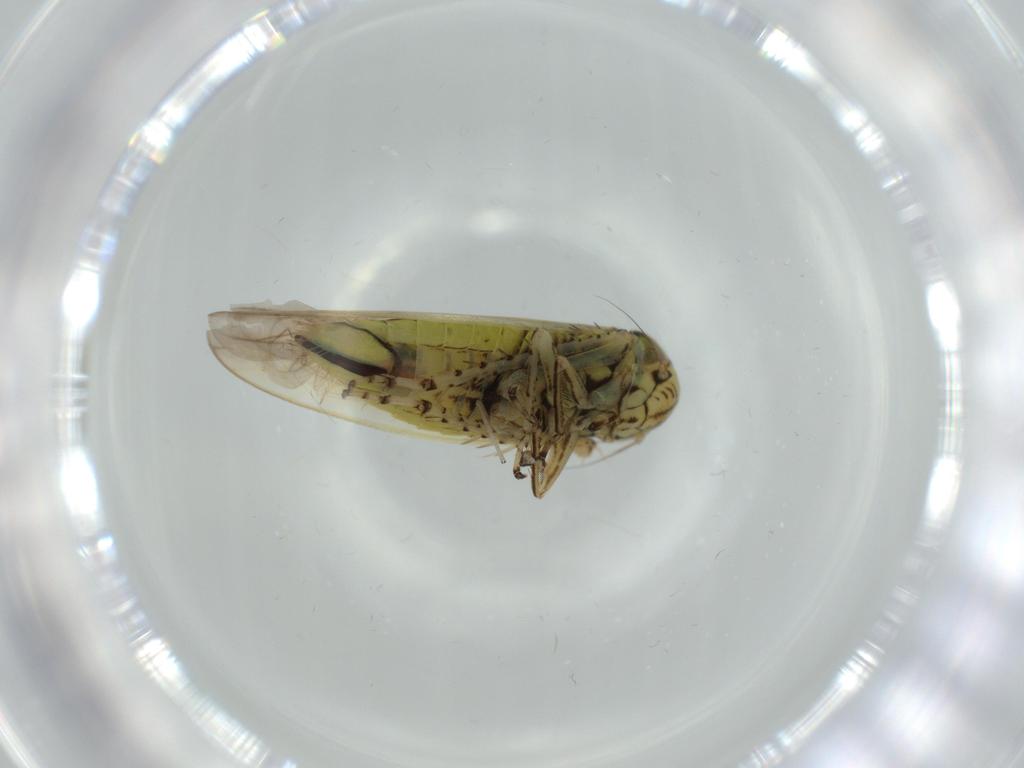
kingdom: Animalia
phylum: Arthropoda
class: Insecta
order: Hemiptera
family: Cicadellidae
